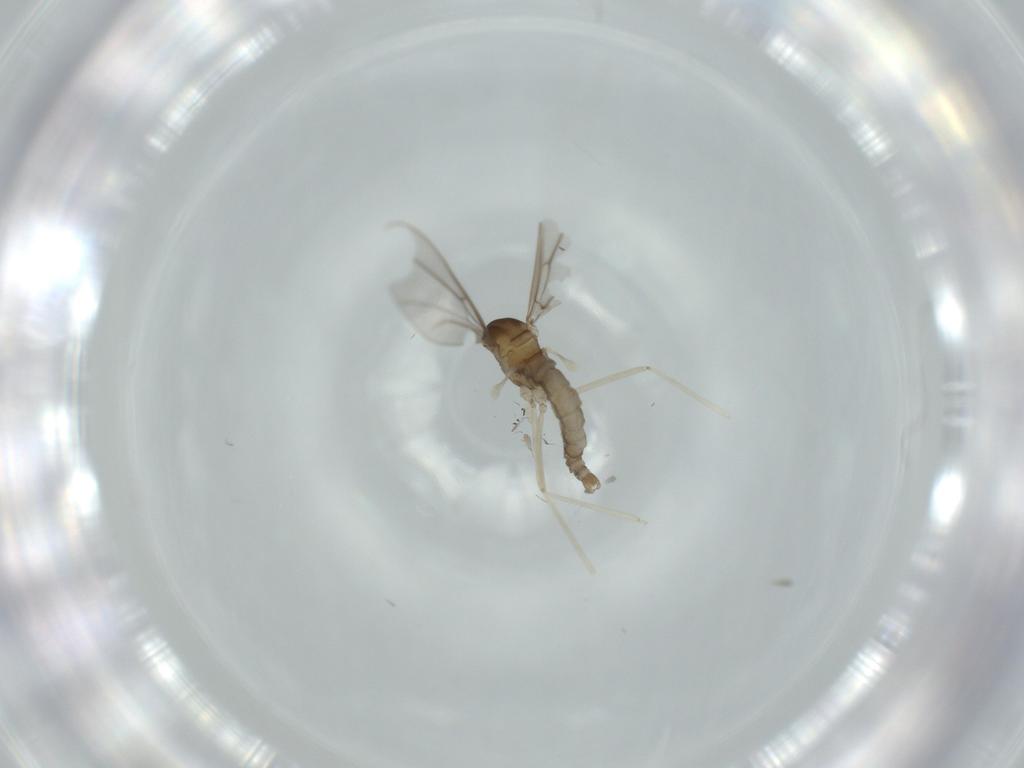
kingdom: Animalia
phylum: Arthropoda
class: Insecta
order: Diptera
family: Cecidomyiidae
